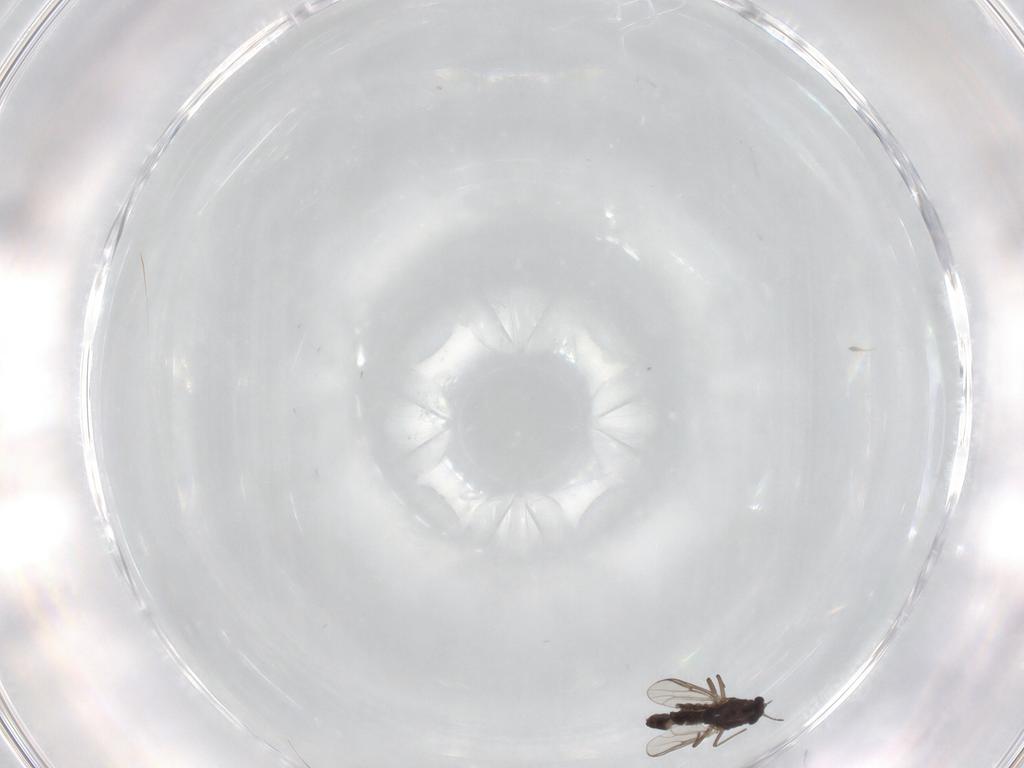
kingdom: Animalia
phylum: Arthropoda
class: Insecta
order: Diptera
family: Chironomidae
